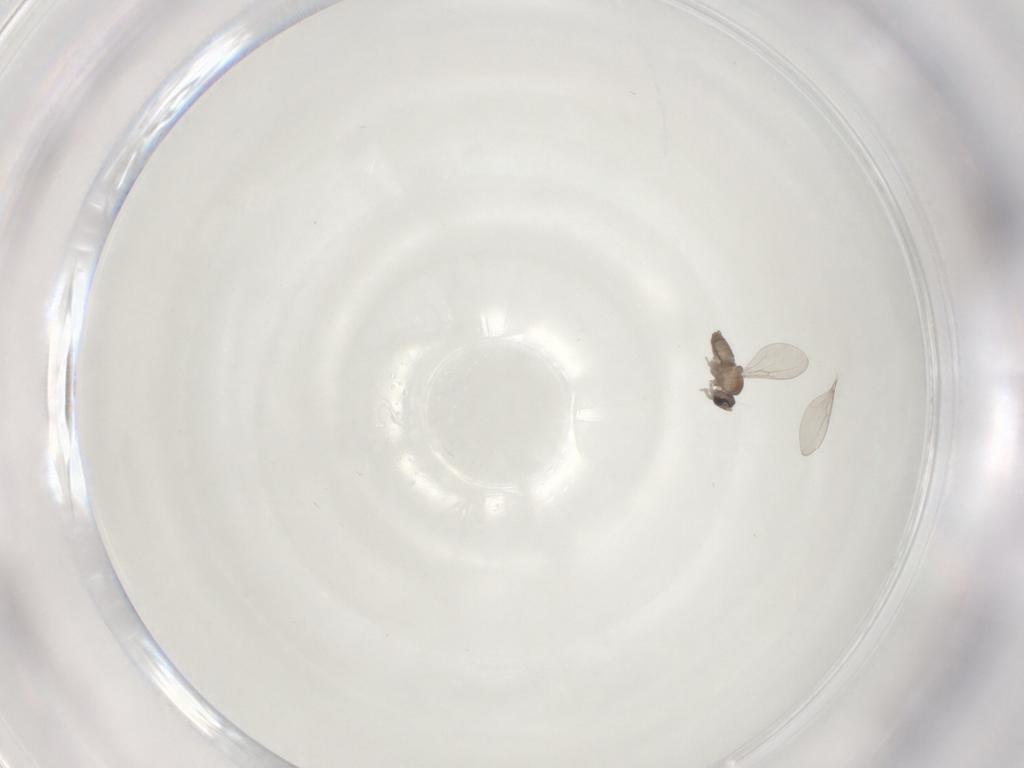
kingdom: Animalia
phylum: Arthropoda
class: Insecta
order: Diptera
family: Cecidomyiidae
